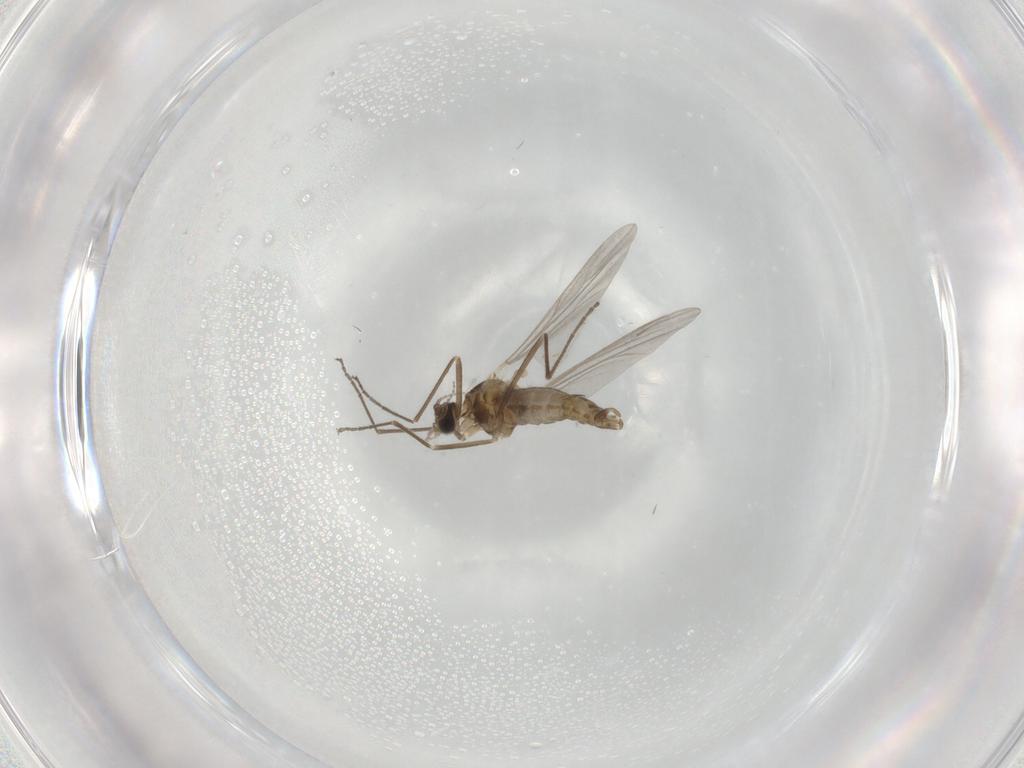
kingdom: Animalia
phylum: Arthropoda
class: Insecta
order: Diptera
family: Cecidomyiidae
